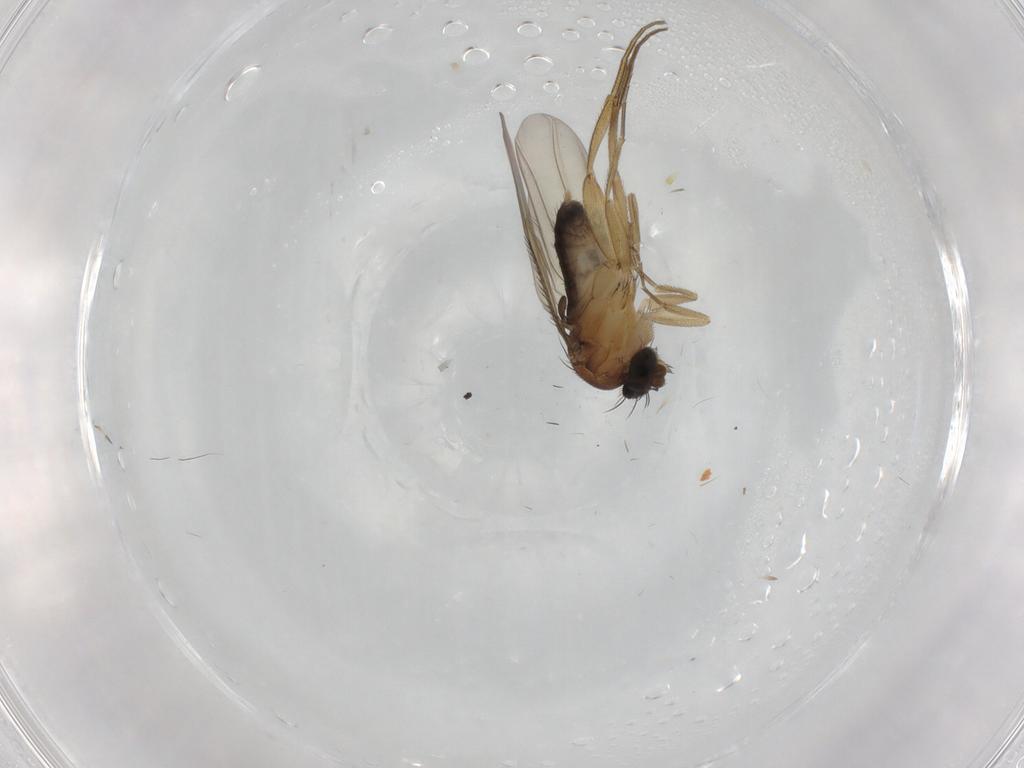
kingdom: Animalia
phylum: Arthropoda
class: Insecta
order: Diptera
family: Phoridae
